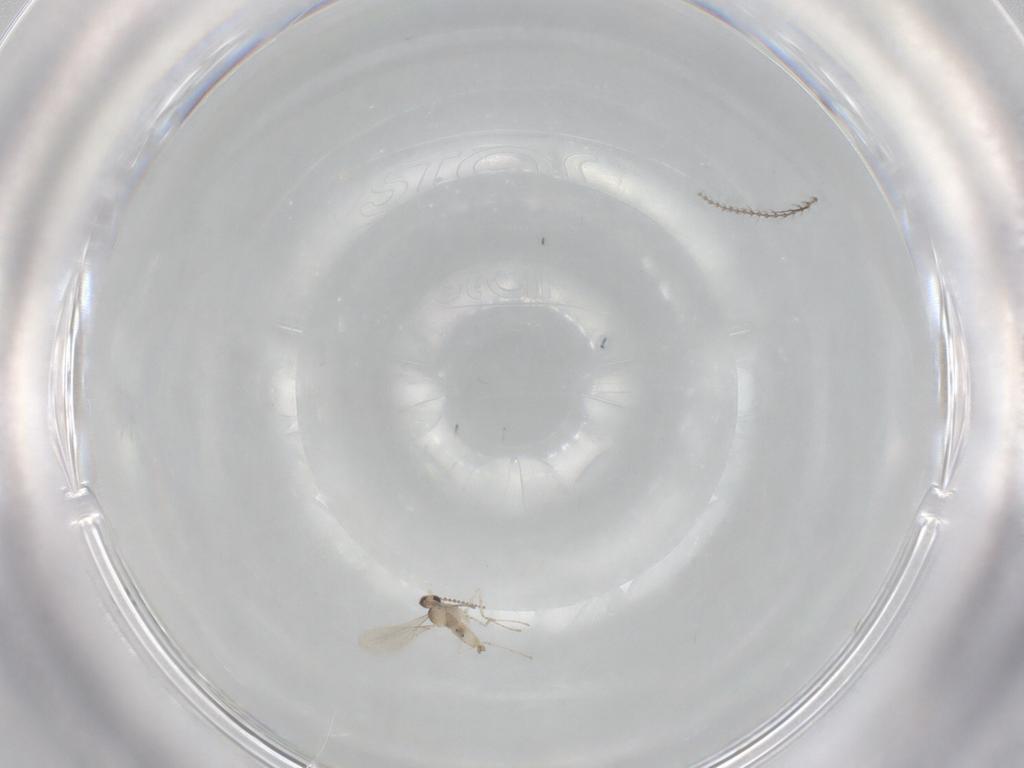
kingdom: Animalia
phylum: Arthropoda
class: Insecta
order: Diptera
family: Cecidomyiidae
